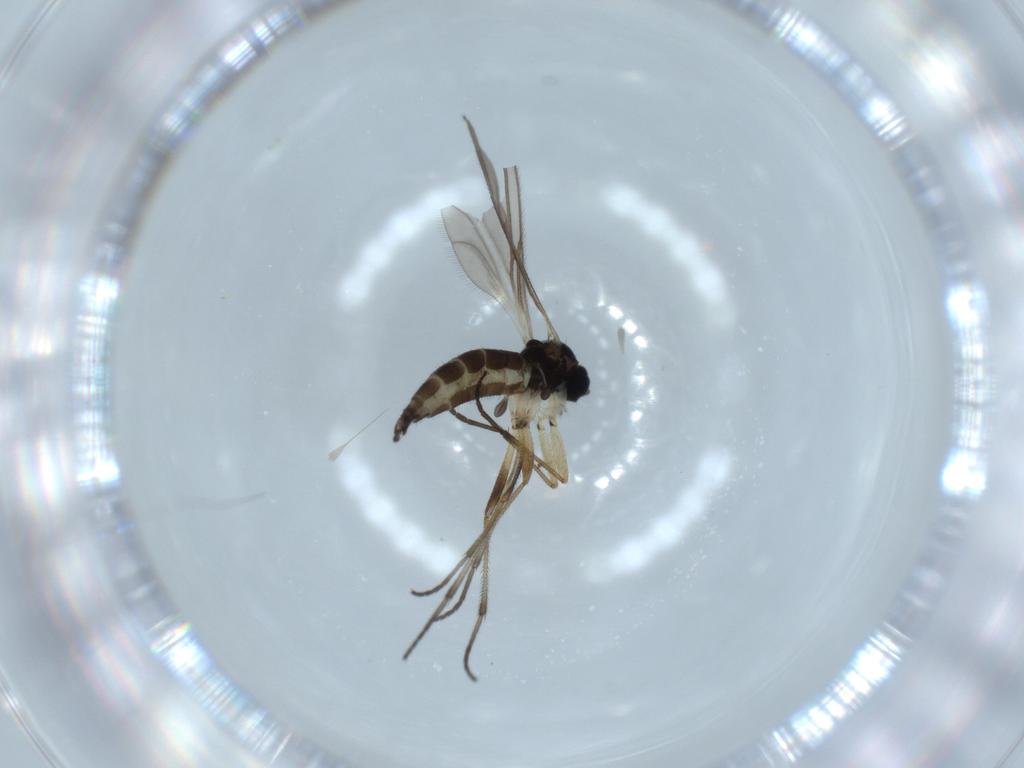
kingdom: Animalia
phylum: Arthropoda
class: Insecta
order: Diptera
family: Sciaridae
